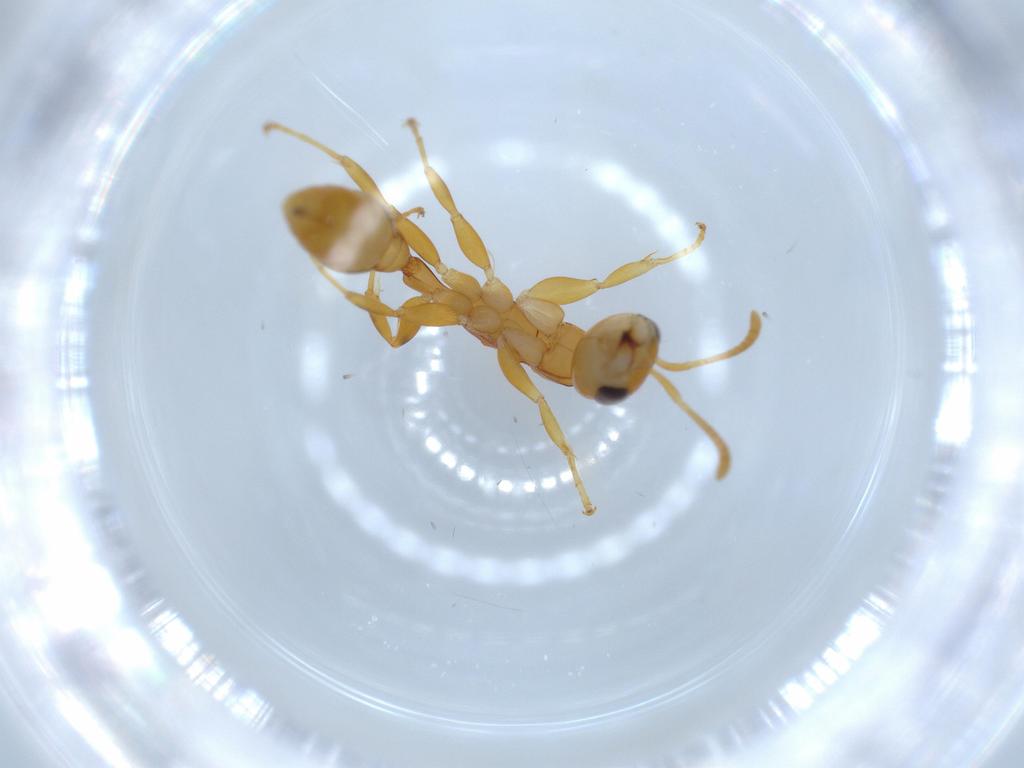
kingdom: Animalia
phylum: Arthropoda
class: Insecta
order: Hymenoptera
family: Formicidae
